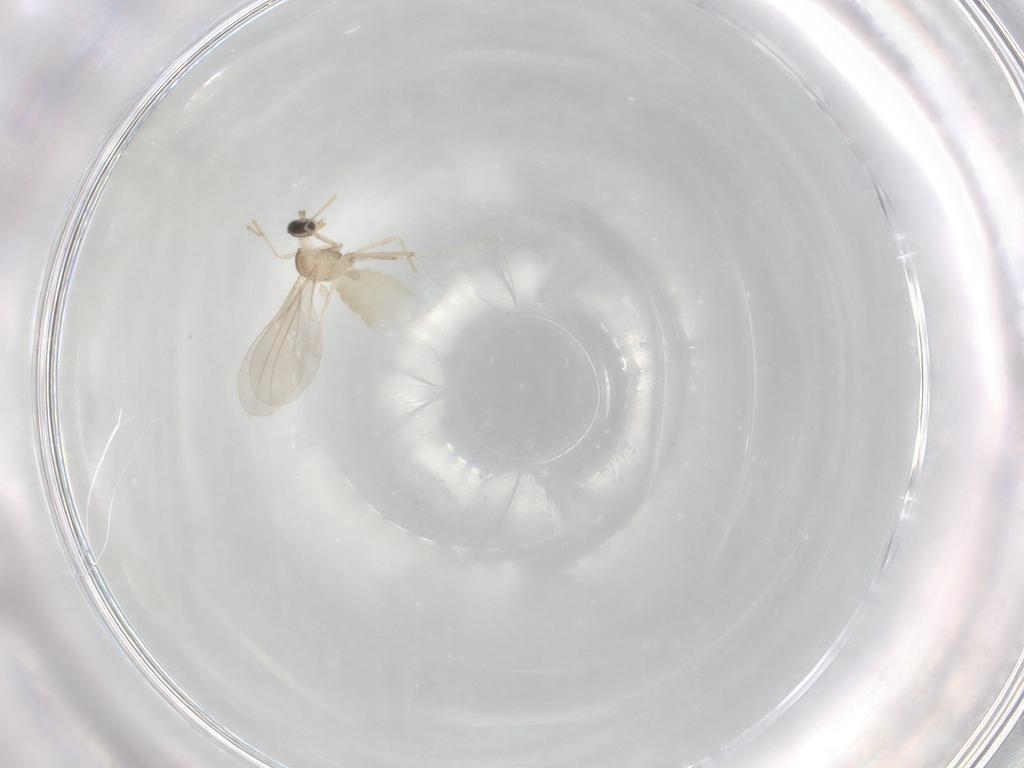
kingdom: Animalia
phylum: Arthropoda
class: Insecta
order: Diptera
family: Cecidomyiidae
